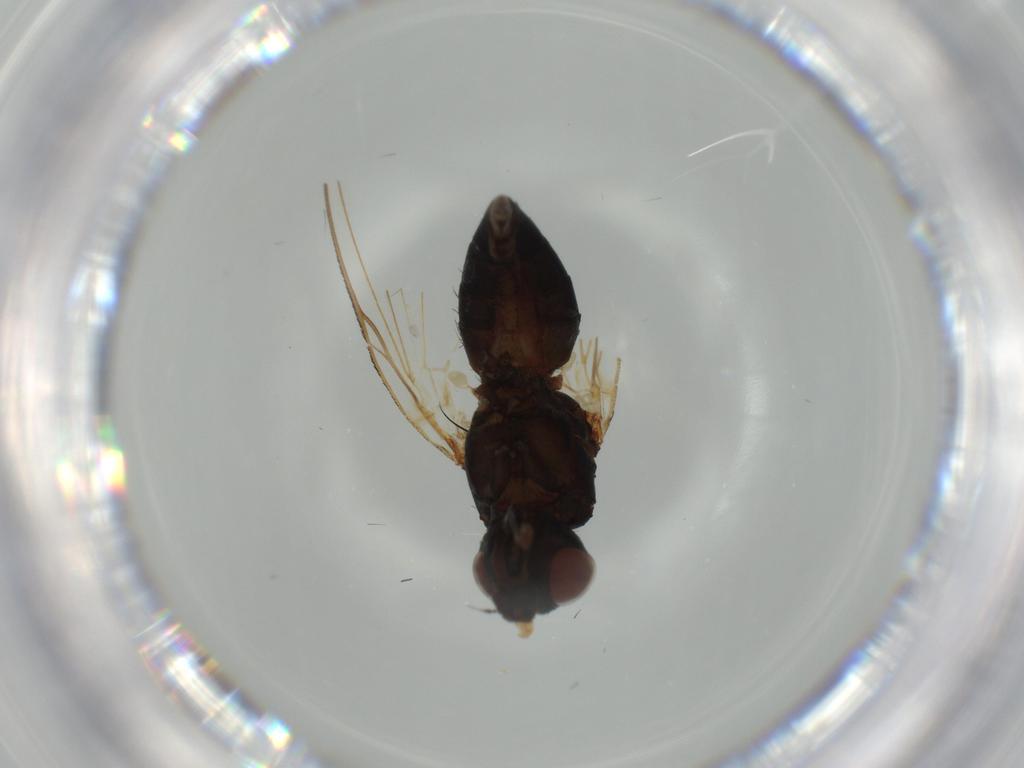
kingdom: Animalia
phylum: Arthropoda
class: Insecta
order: Diptera
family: Anthomyiidae
